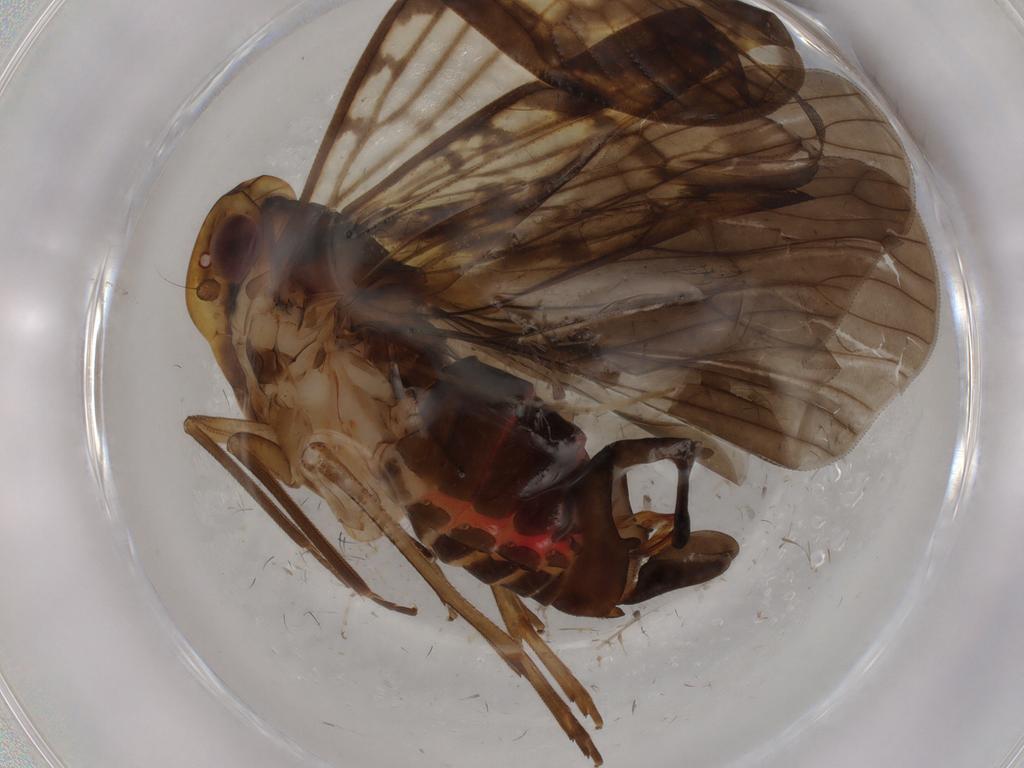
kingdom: Animalia
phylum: Arthropoda
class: Insecta
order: Hemiptera
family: Cixiidae
